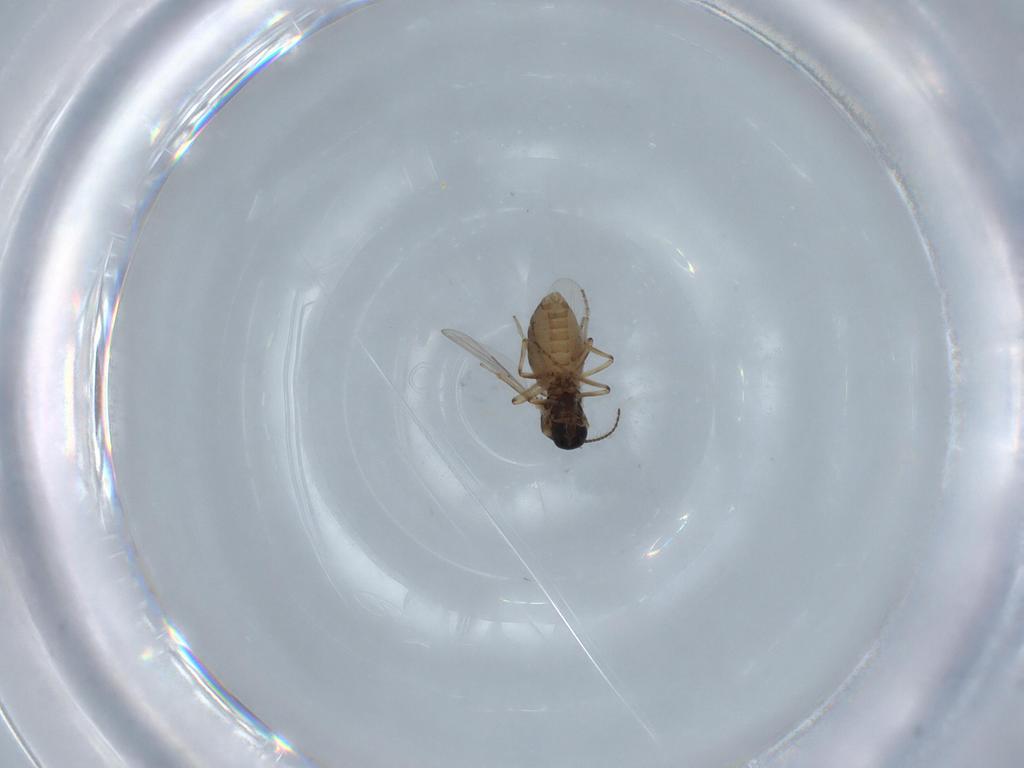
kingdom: Animalia
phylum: Arthropoda
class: Insecta
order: Diptera
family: Ceratopogonidae
